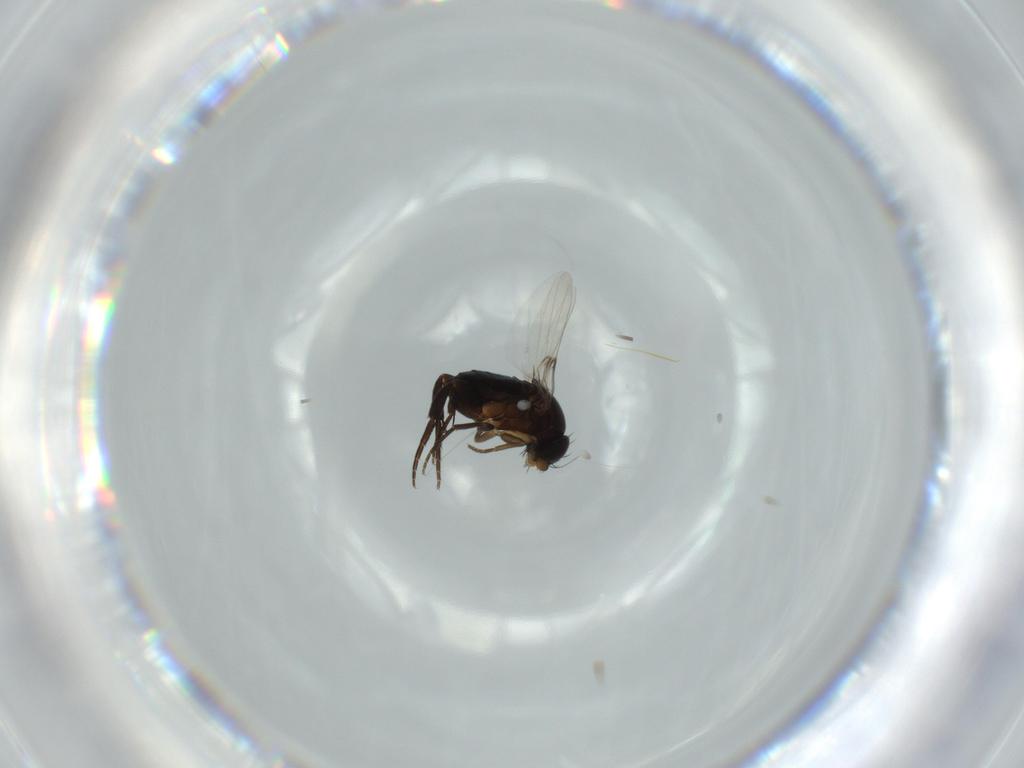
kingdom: Animalia
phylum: Arthropoda
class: Insecta
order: Diptera
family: Phoridae
